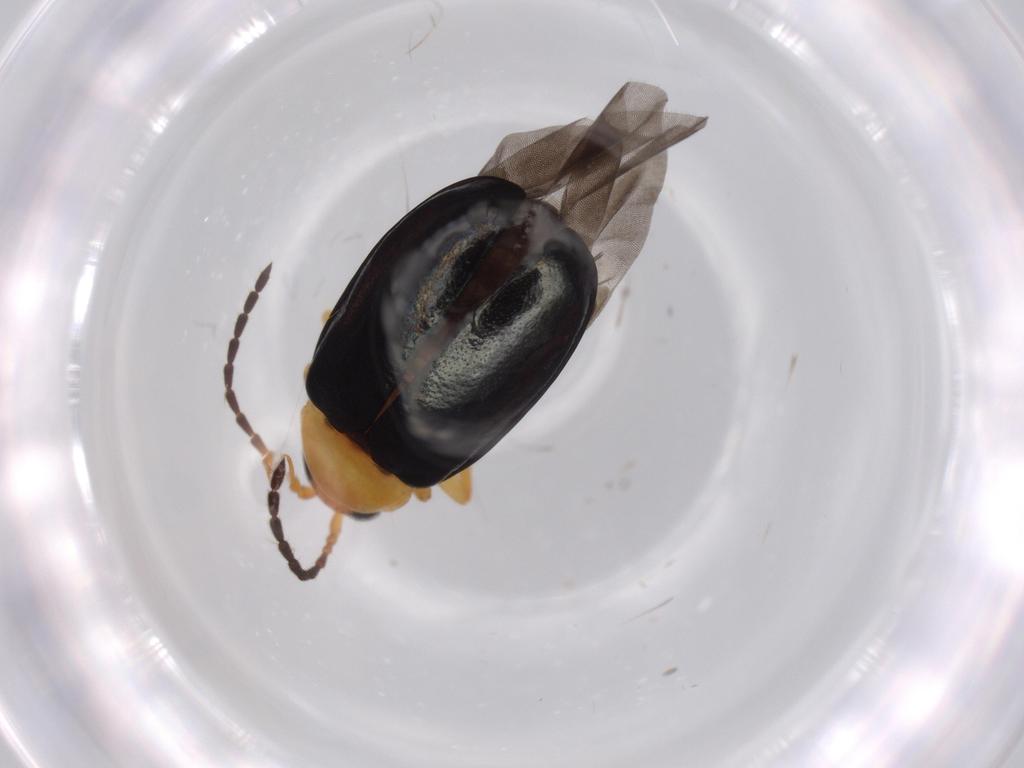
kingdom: Animalia
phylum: Arthropoda
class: Insecta
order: Coleoptera
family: Chrysomelidae
